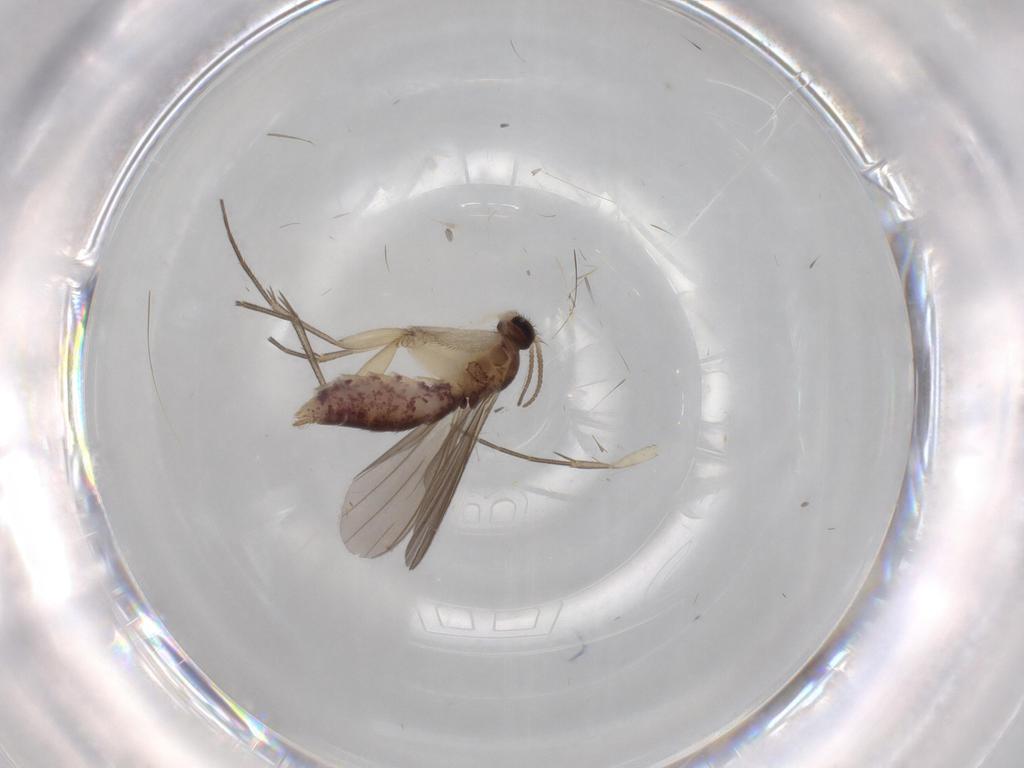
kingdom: Animalia
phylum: Arthropoda
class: Insecta
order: Diptera
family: Mycetophilidae
